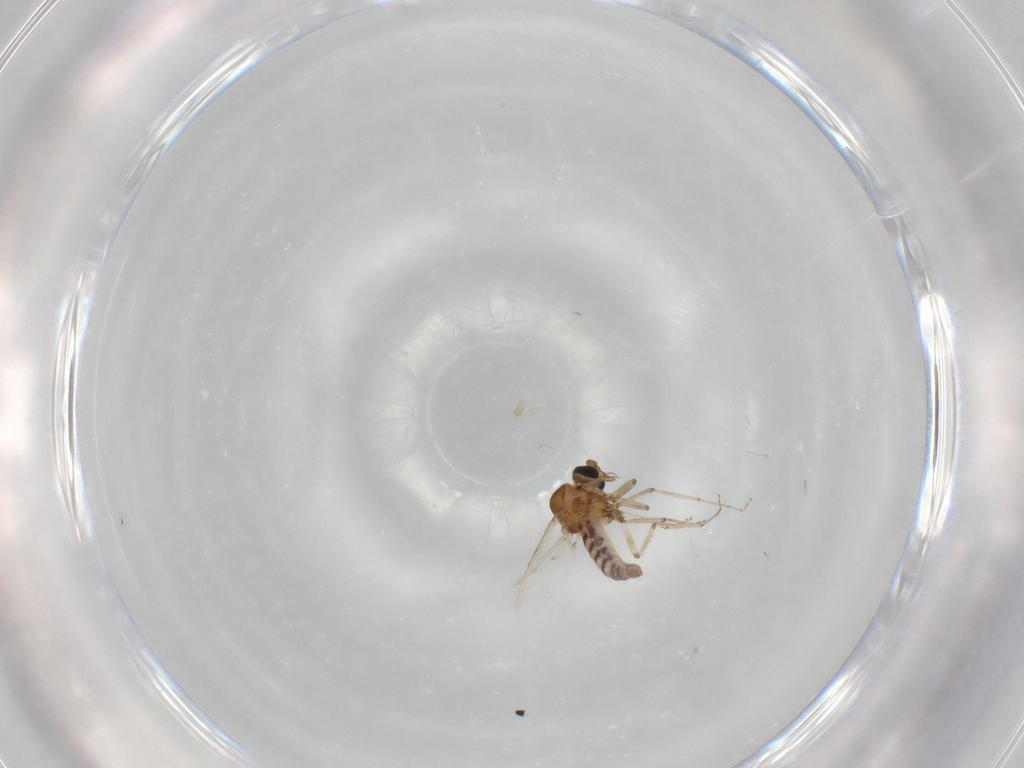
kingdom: Animalia
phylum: Arthropoda
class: Insecta
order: Diptera
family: Ceratopogonidae
